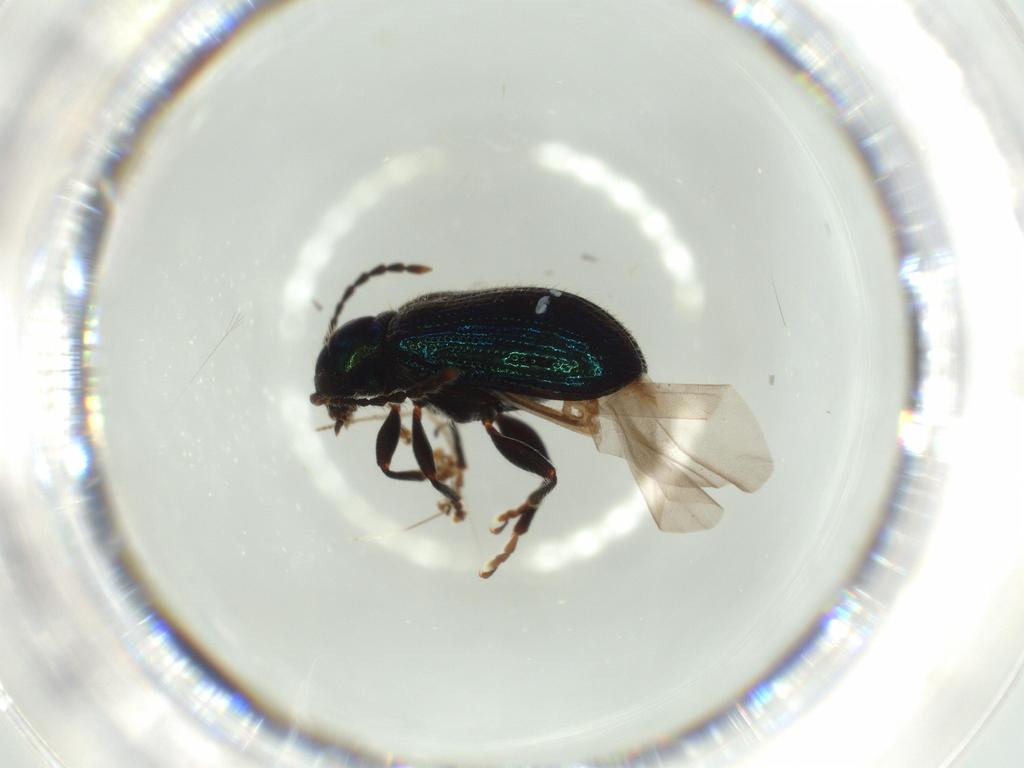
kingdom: Animalia
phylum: Arthropoda
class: Insecta
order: Coleoptera
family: Chrysomelidae
